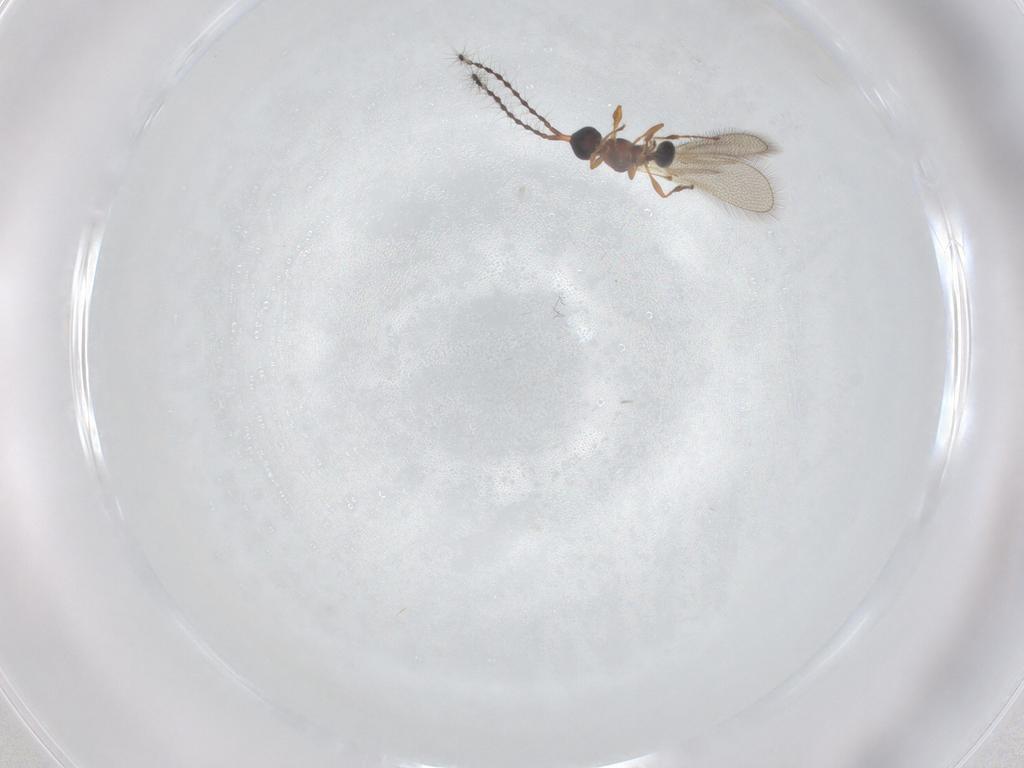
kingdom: Animalia
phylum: Arthropoda
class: Insecta
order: Hymenoptera
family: Diapriidae
